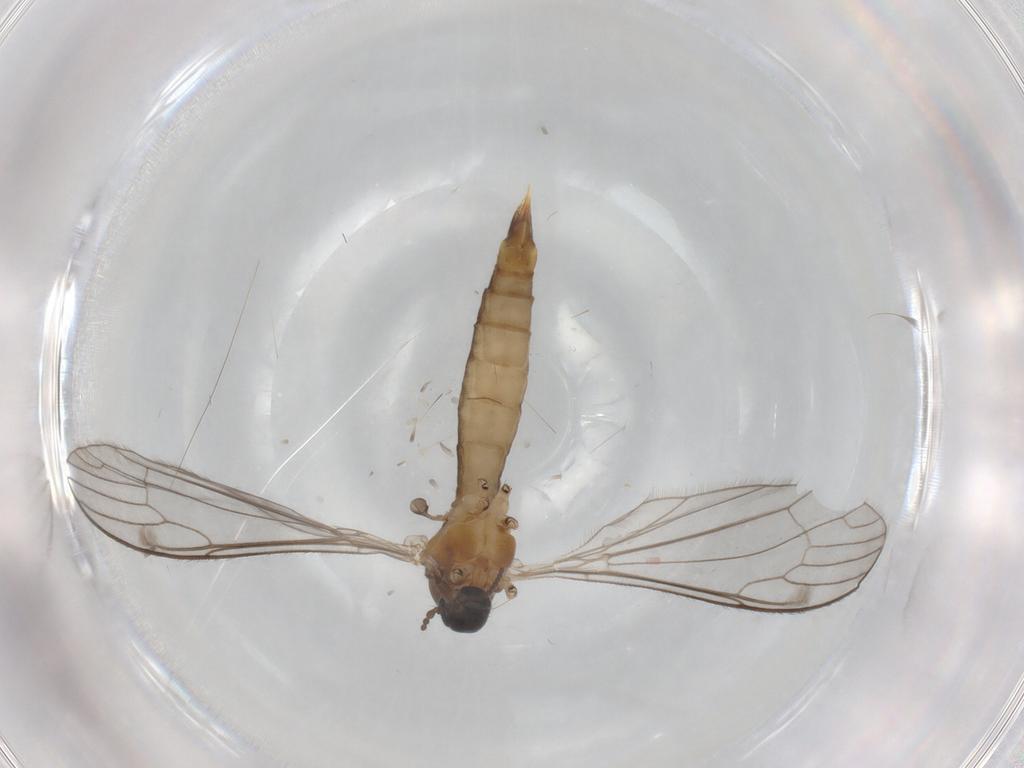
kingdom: Animalia
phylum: Arthropoda
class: Insecta
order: Diptera
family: Limoniidae
